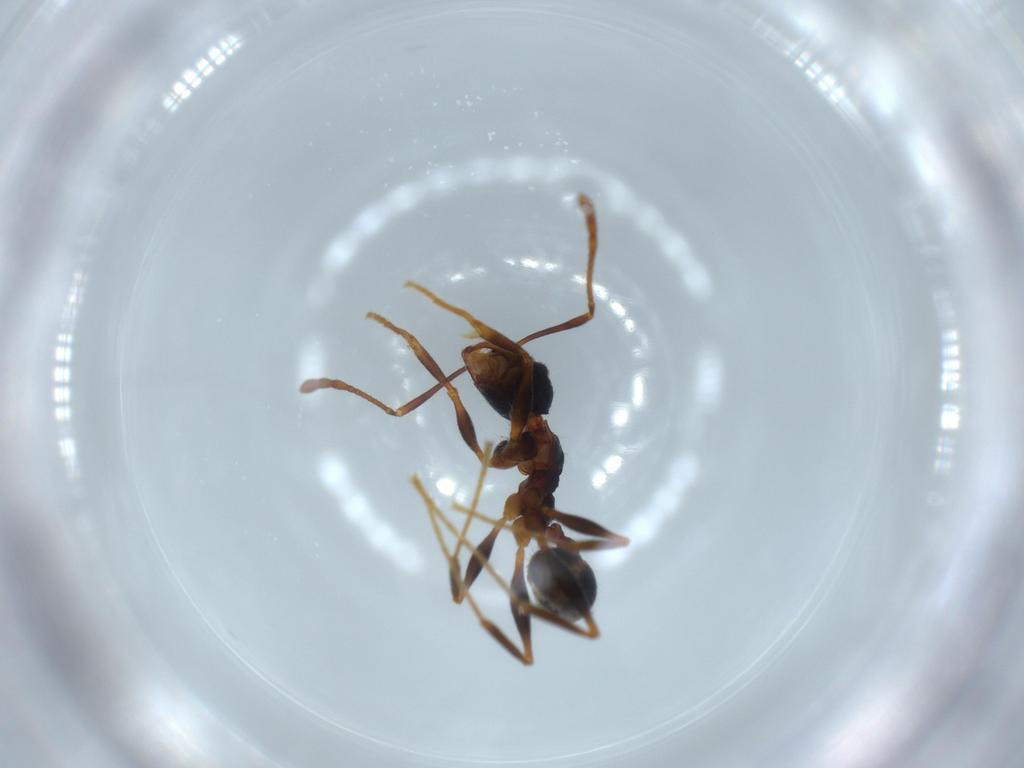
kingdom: Animalia
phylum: Arthropoda
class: Insecta
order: Hymenoptera
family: Formicidae
